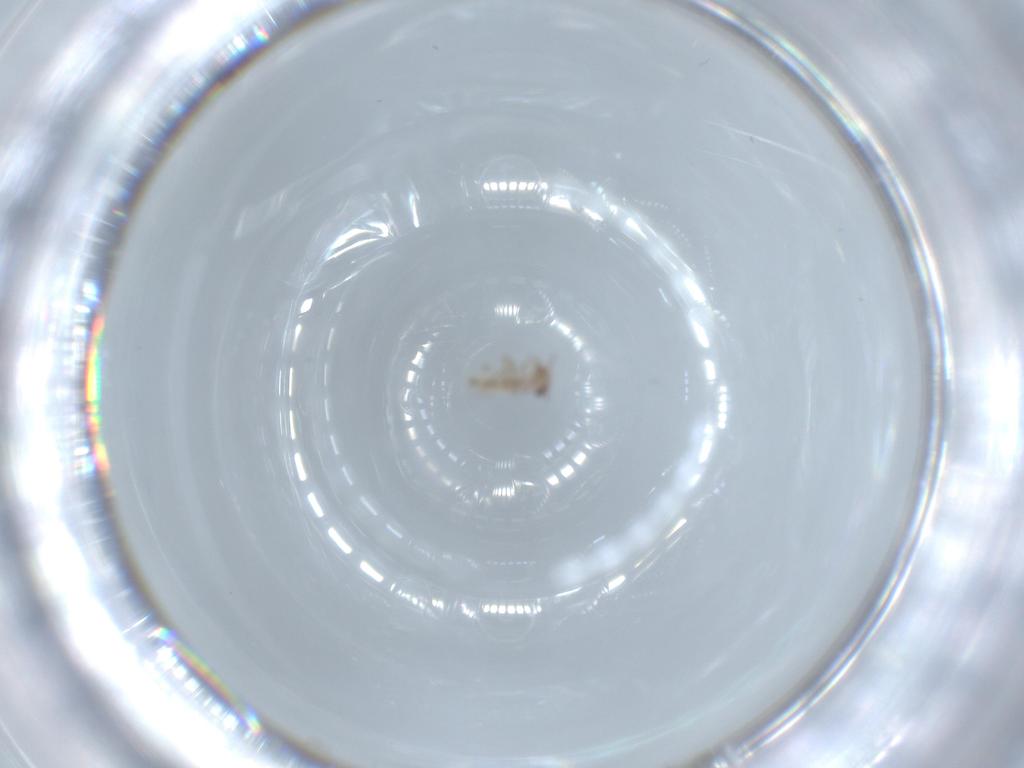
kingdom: Animalia
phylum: Arthropoda
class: Insecta
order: Psocodea
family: Lepidopsocidae
